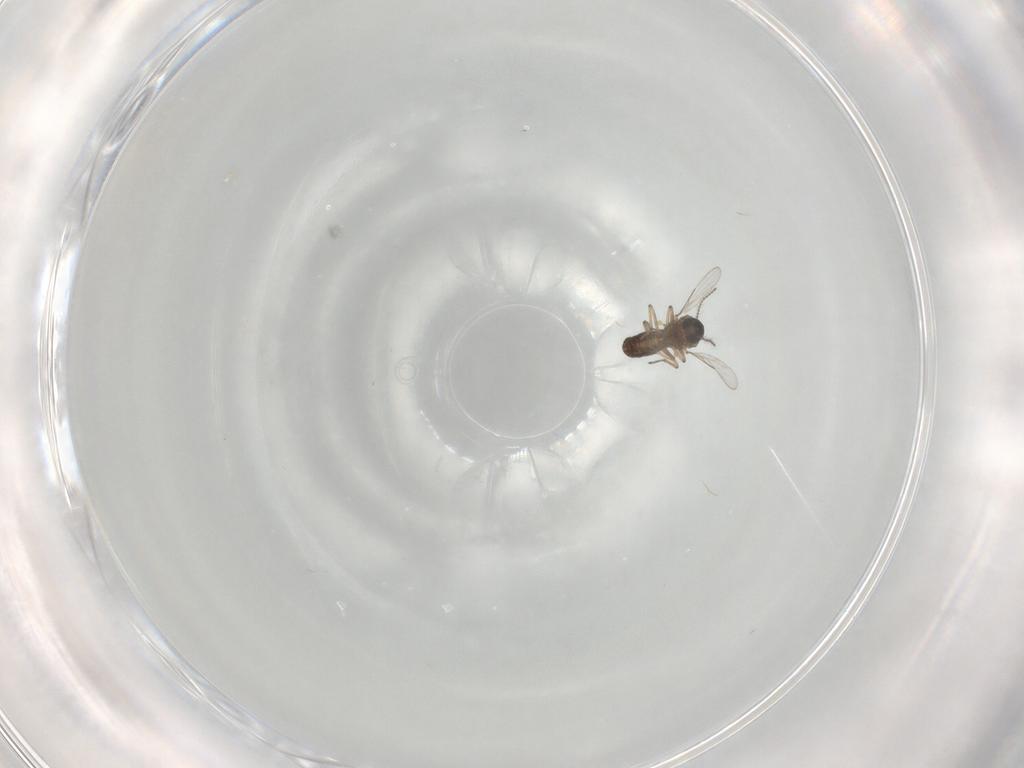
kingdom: Animalia
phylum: Arthropoda
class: Insecta
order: Diptera
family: Ceratopogonidae
